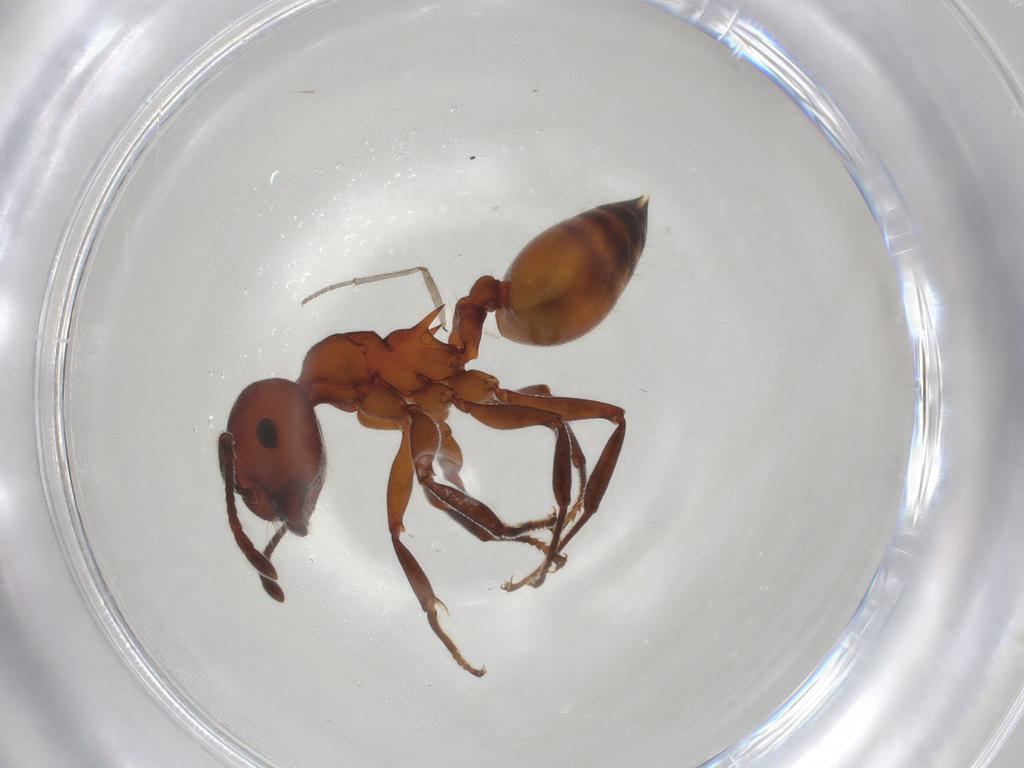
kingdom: Animalia
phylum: Arthropoda
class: Insecta
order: Hymenoptera
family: Formicidae
